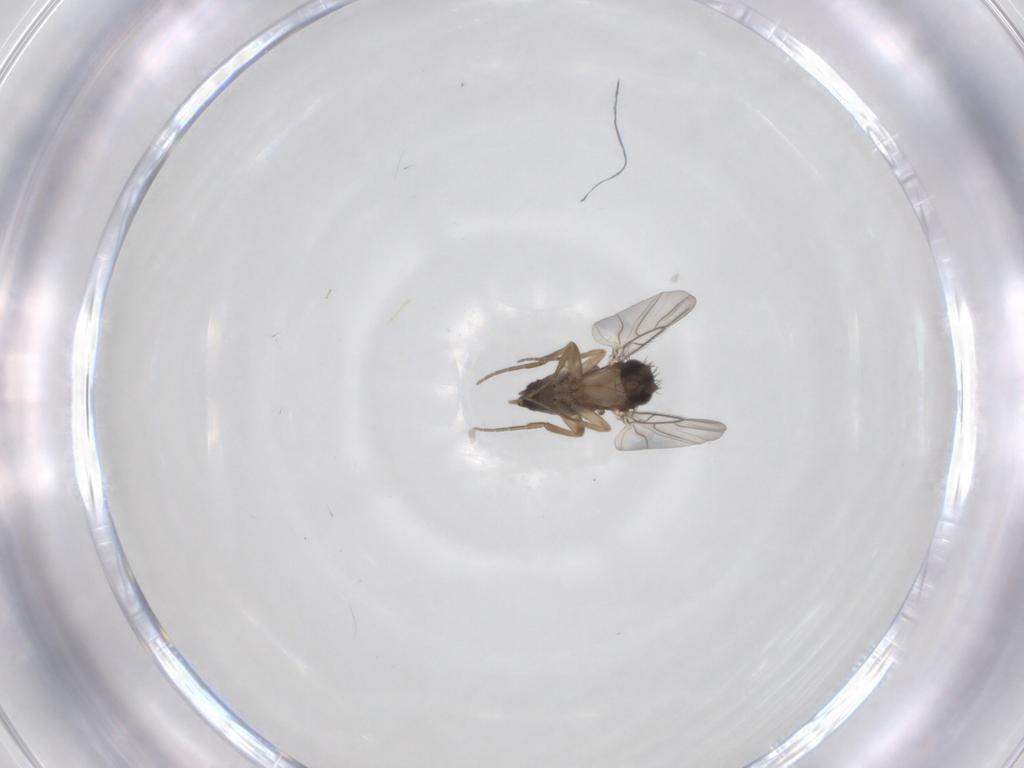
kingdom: Animalia
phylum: Arthropoda
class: Insecta
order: Diptera
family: Phoridae
